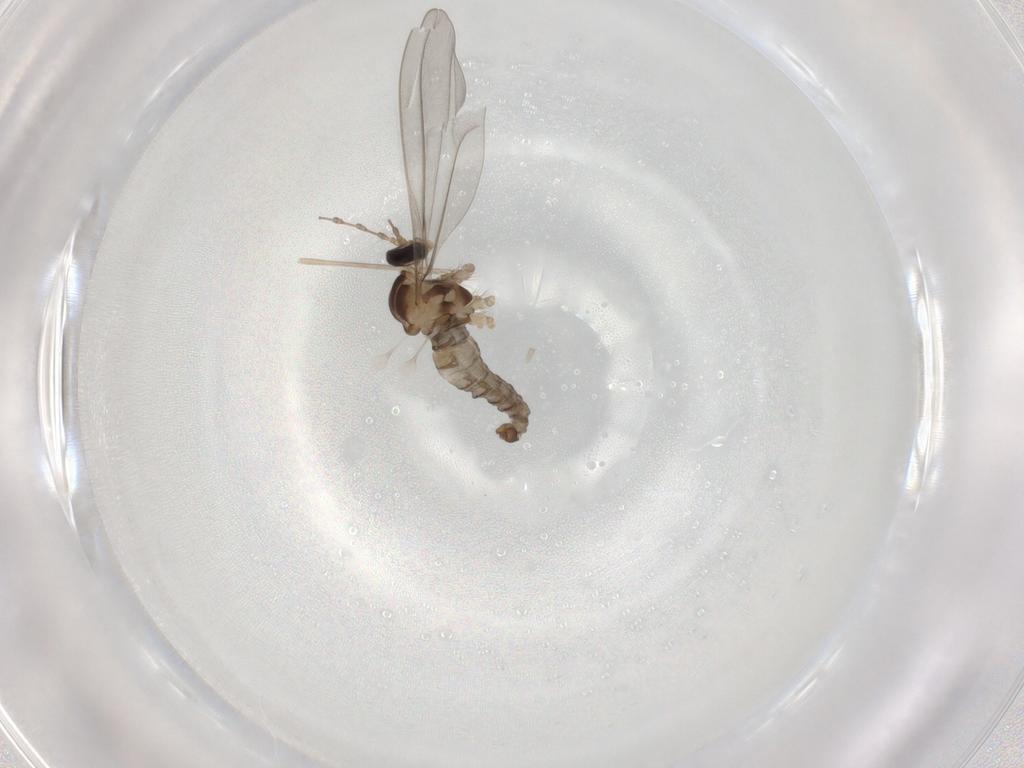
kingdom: Animalia
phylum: Arthropoda
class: Insecta
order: Diptera
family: Cecidomyiidae
